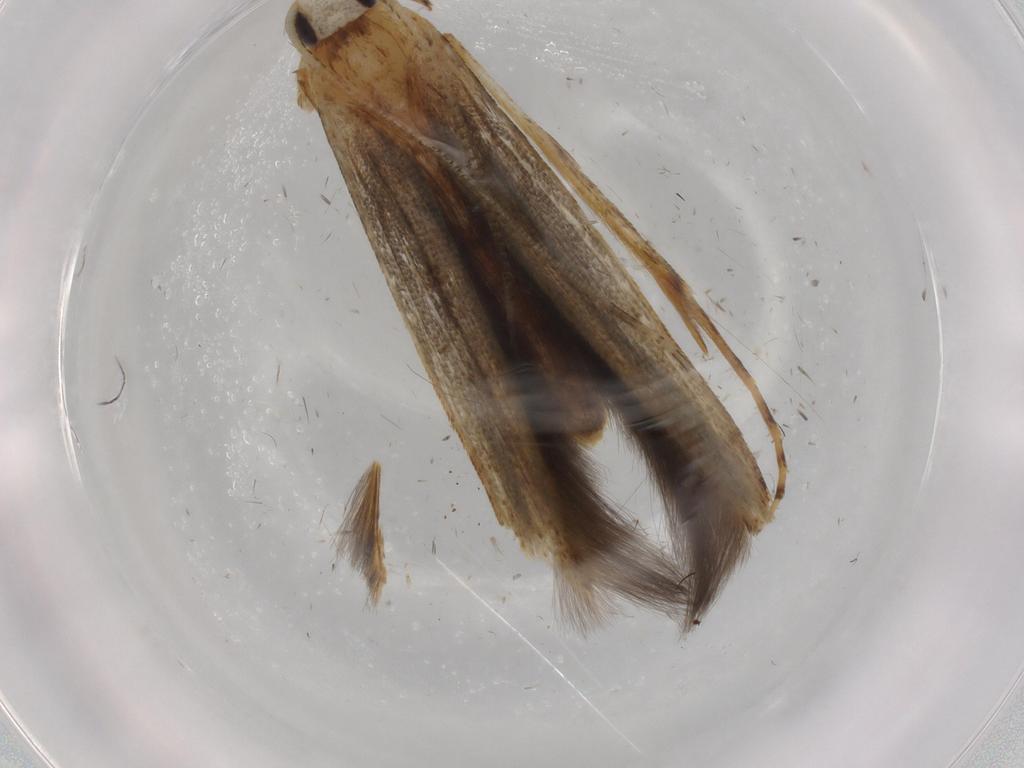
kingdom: Animalia
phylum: Arthropoda
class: Insecta
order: Lepidoptera
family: Batrachedridae
